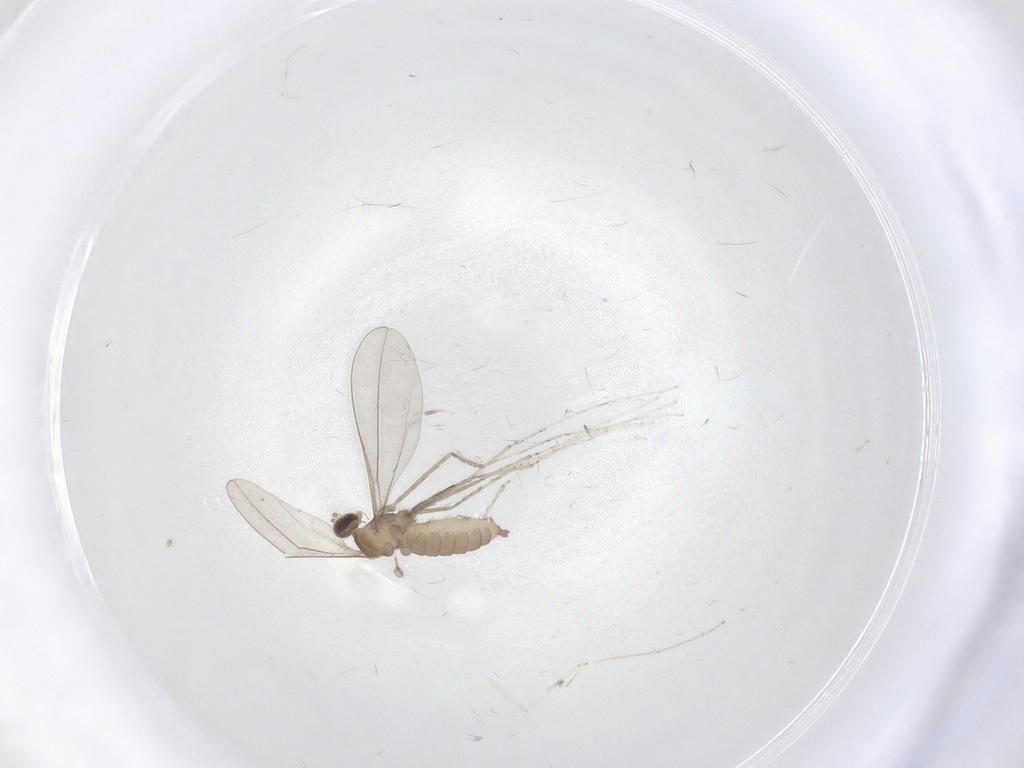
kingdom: Animalia
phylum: Arthropoda
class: Insecta
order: Diptera
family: Cecidomyiidae
